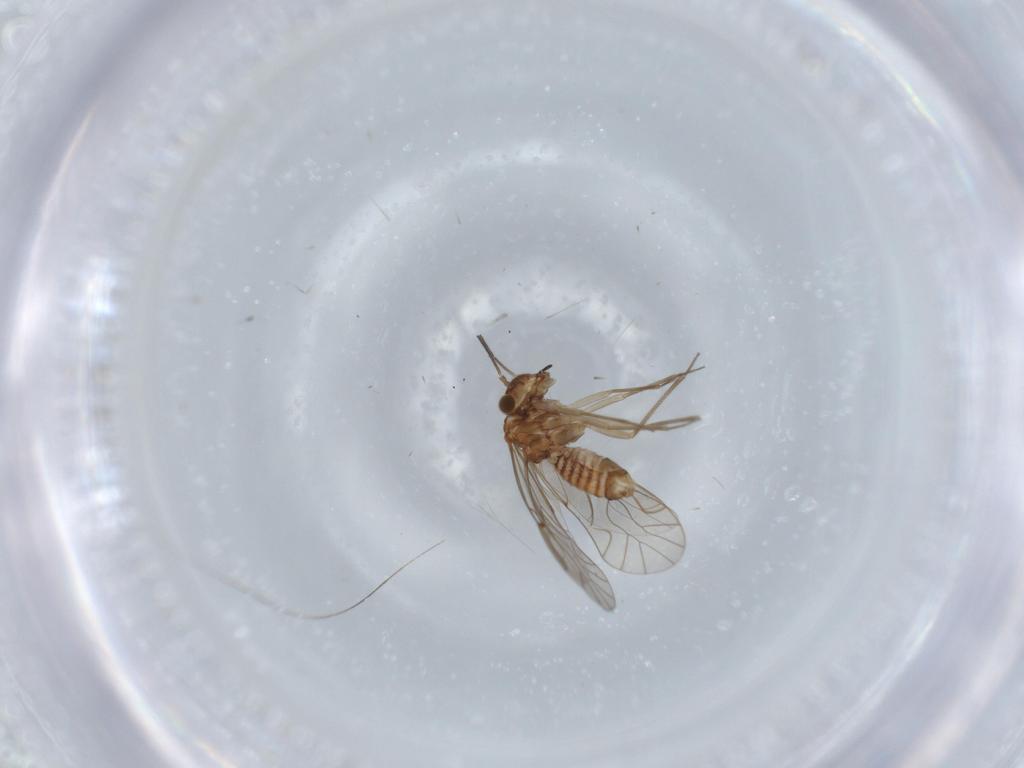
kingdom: Animalia
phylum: Arthropoda
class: Insecta
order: Psocodea
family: Lachesillidae
